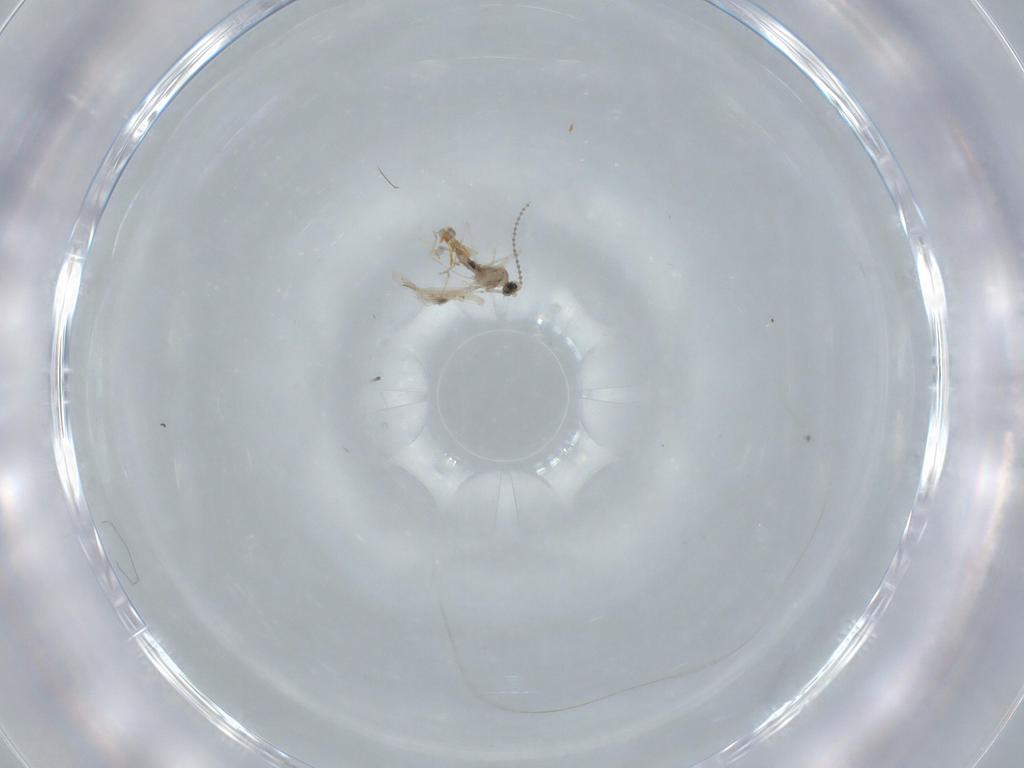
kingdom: Animalia
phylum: Arthropoda
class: Insecta
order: Diptera
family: Cecidomyiidae
